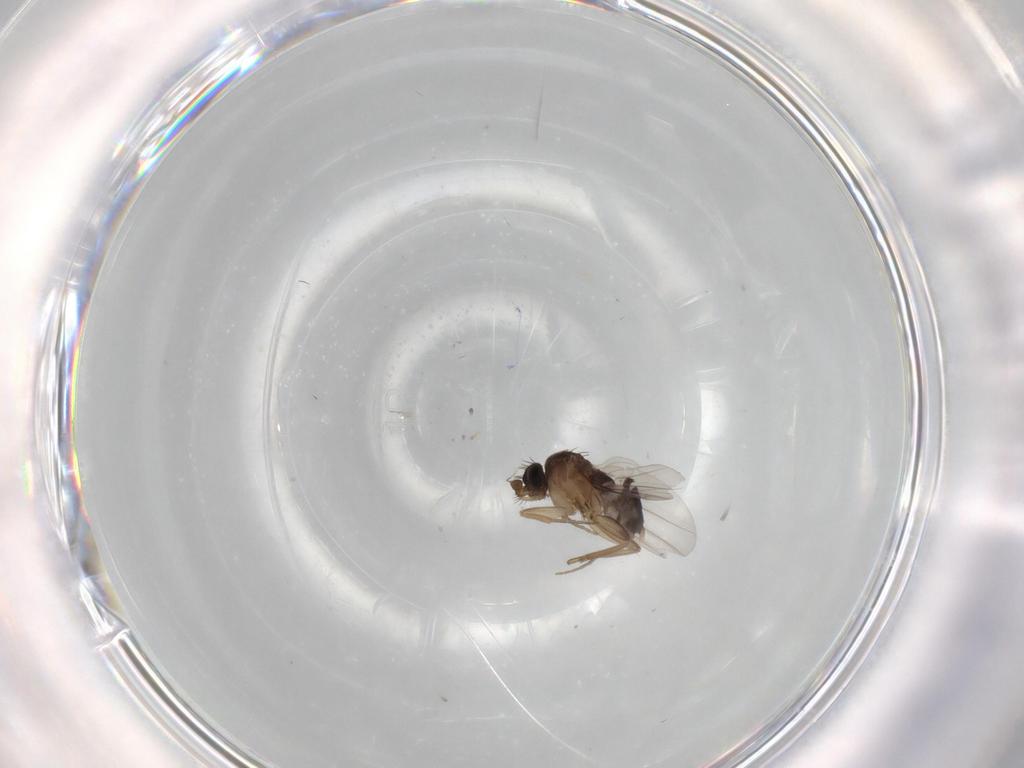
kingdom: Animalia
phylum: Arthropoda
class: Insecta
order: Diptera
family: Phoridae
